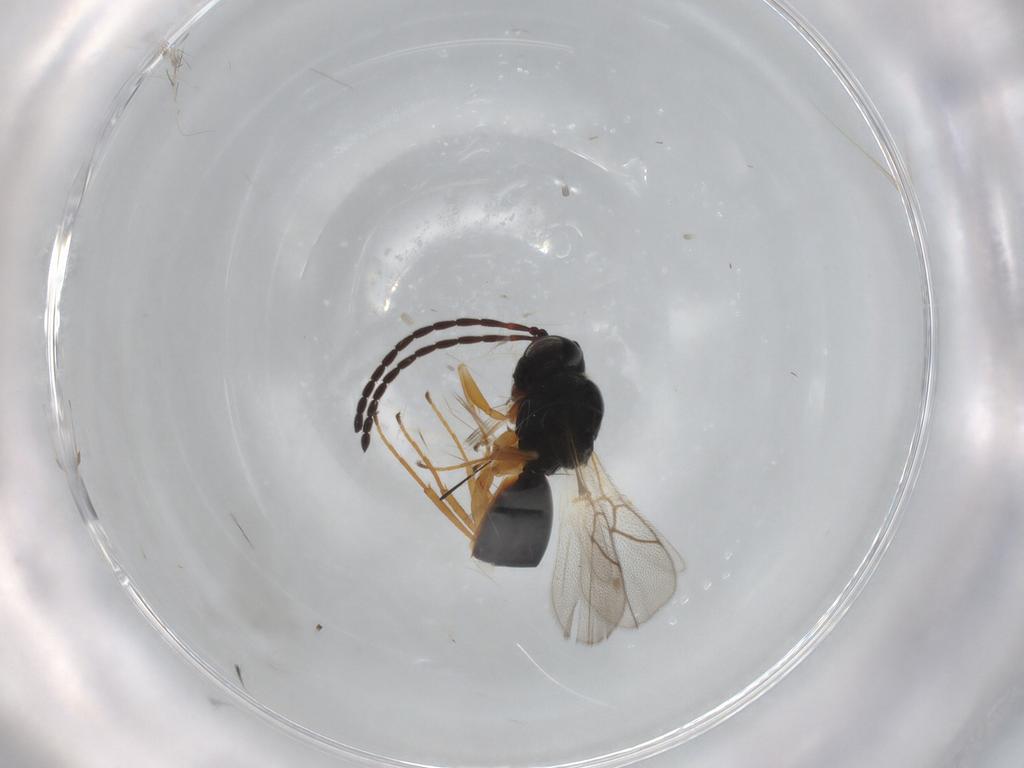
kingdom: Animalia
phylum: Arthropoda
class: Insecta
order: Hymenoptera
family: Figitidae
